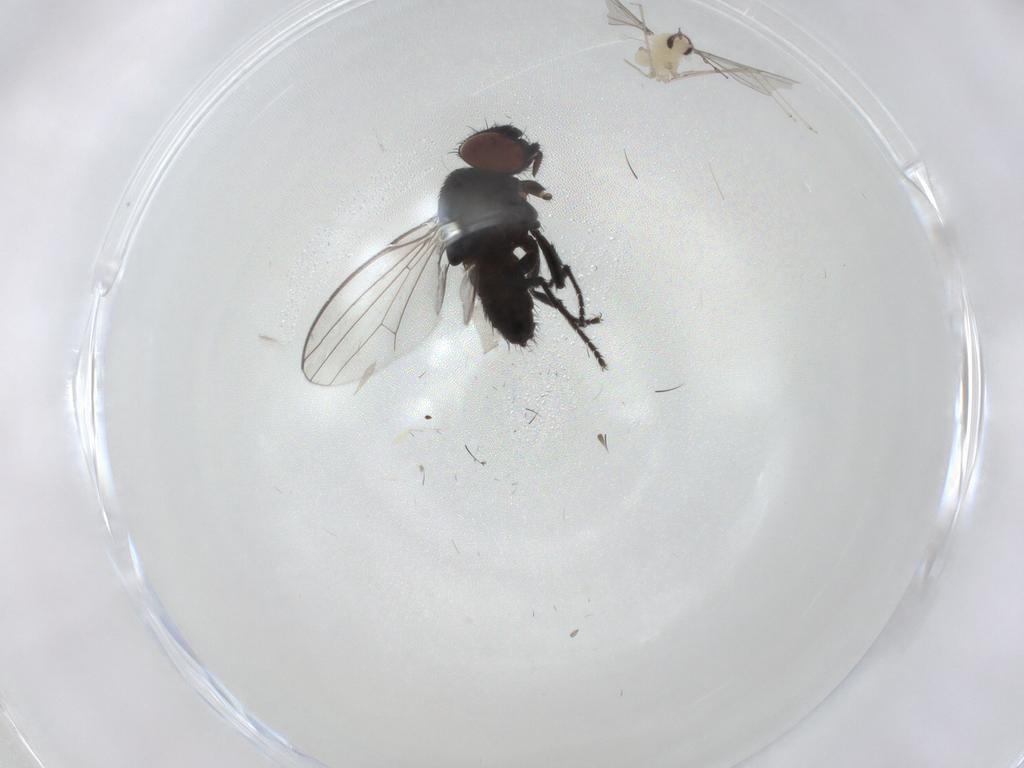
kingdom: Animalia
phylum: Arthropoda
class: Insecta
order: Diptera
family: Cecidomyiidae
